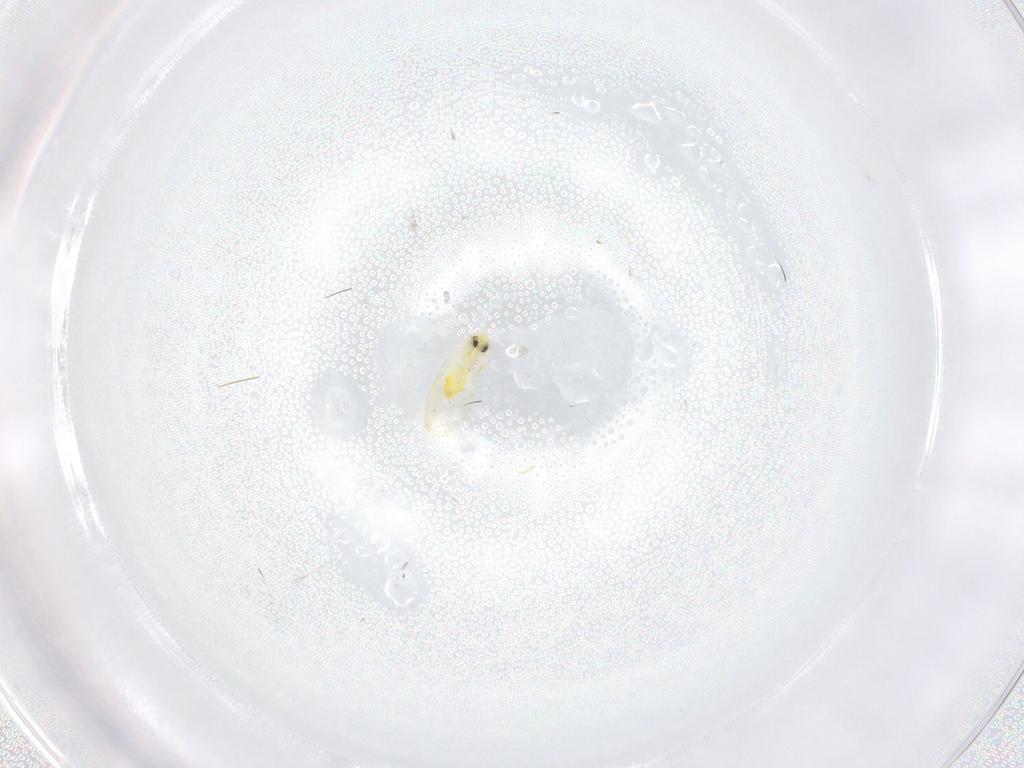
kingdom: Animalia
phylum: Arthropoda
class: Insecta
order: Hemiptera
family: Aleyrodidae
